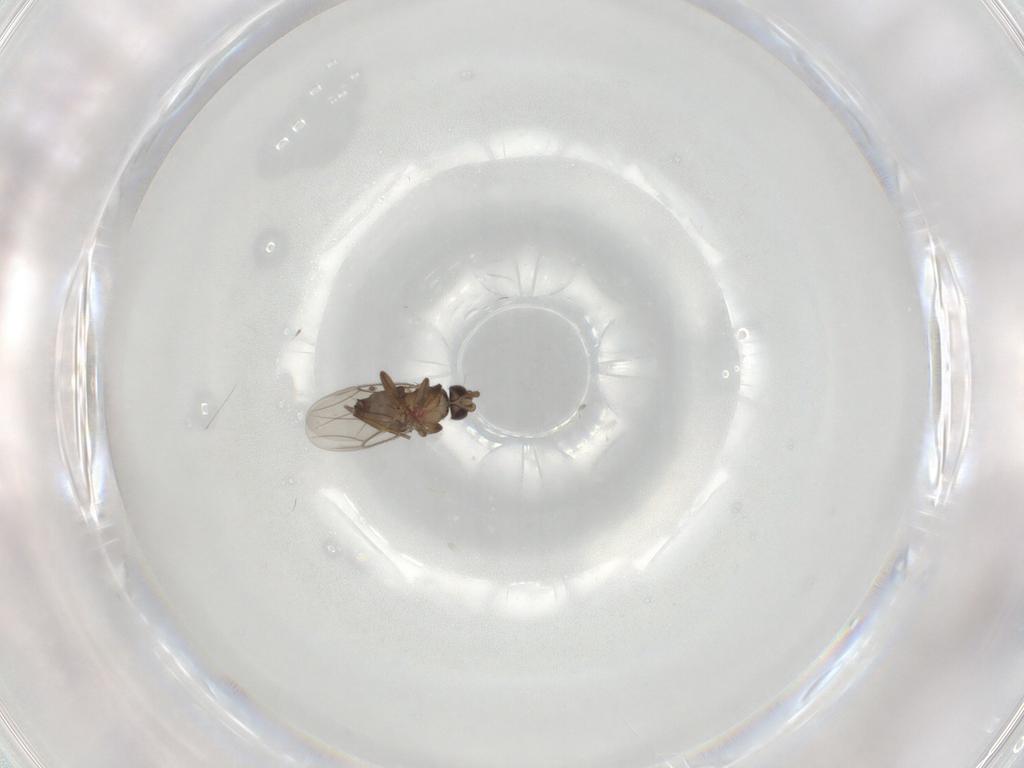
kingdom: Animalia
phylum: Arthropoda
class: Insecta
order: Diptera
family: Phoridae
